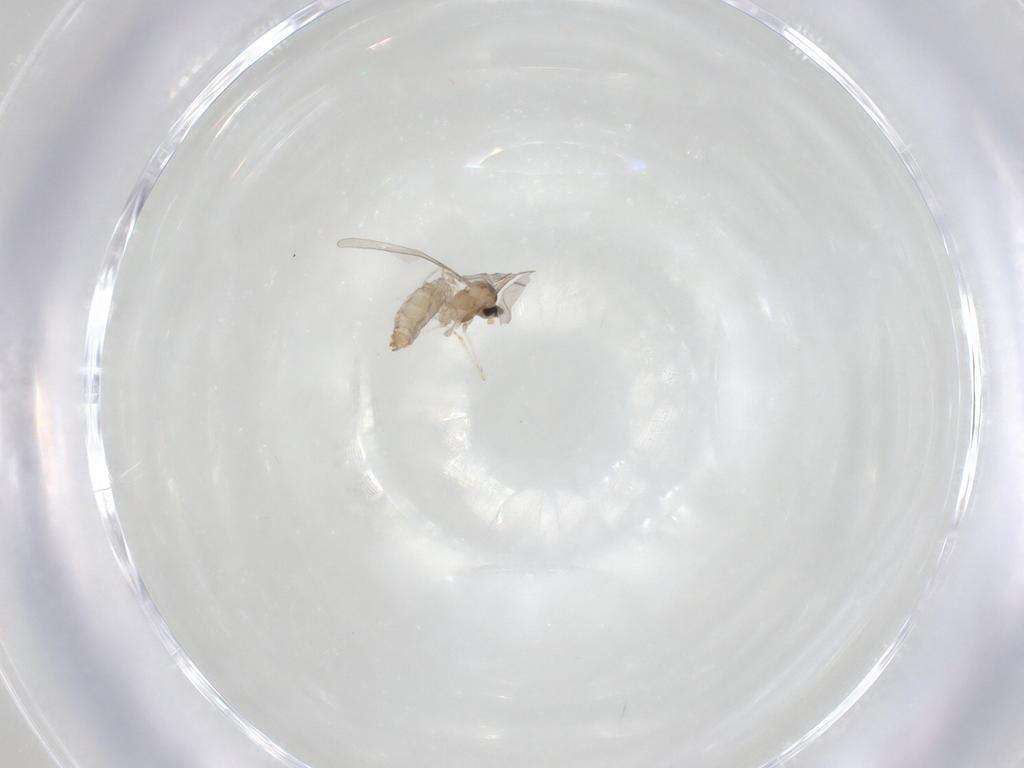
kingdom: Animalia
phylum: Arthropoda
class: Insecta
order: Diptera
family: Cecidomyiidae
